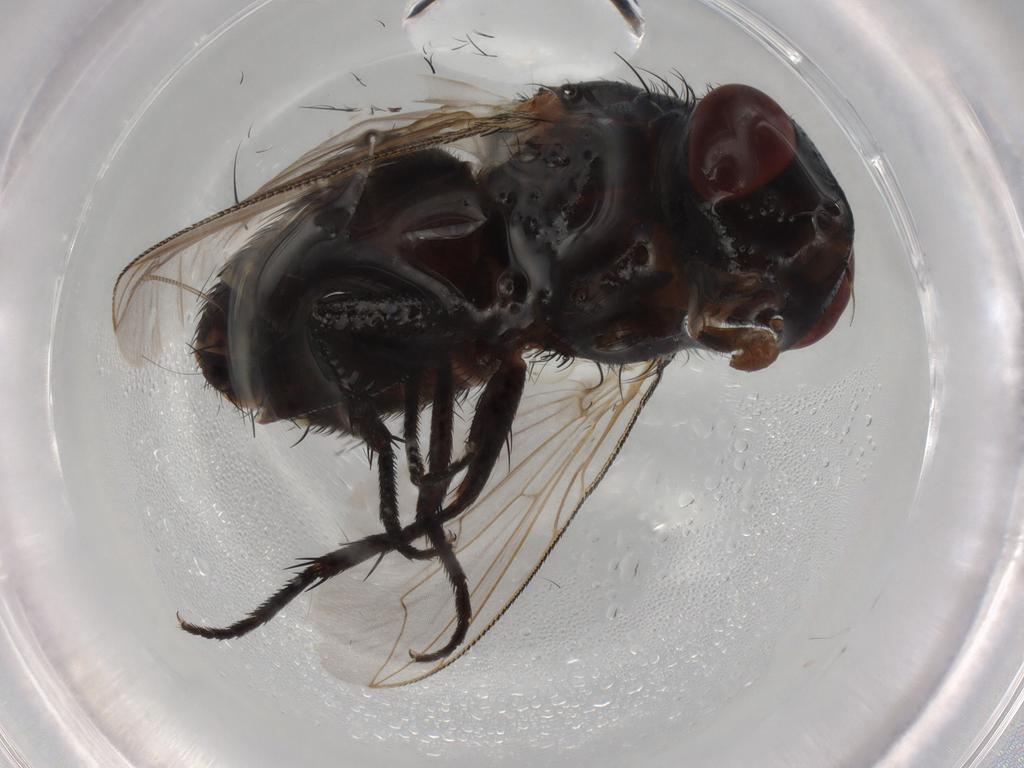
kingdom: Animalia
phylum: Arthropoda
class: Insecta
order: Diptera
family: Sarcophagidae
